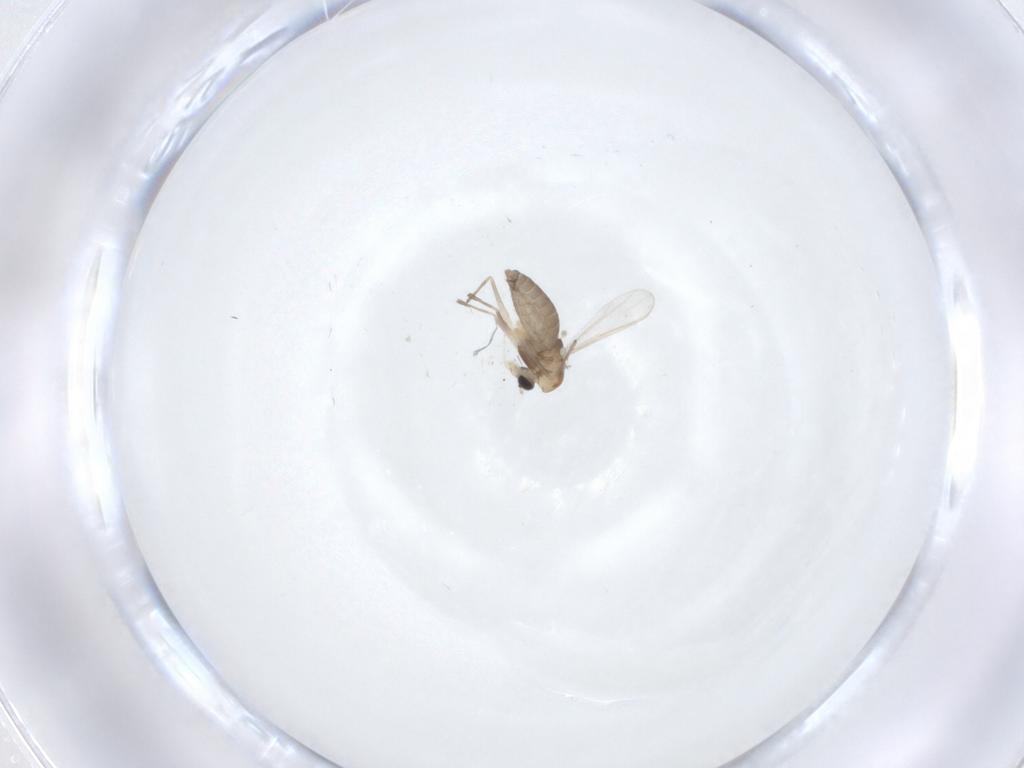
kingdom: Animalia
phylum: Arthropoda
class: Insecta
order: Diptera
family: Chironomidae
